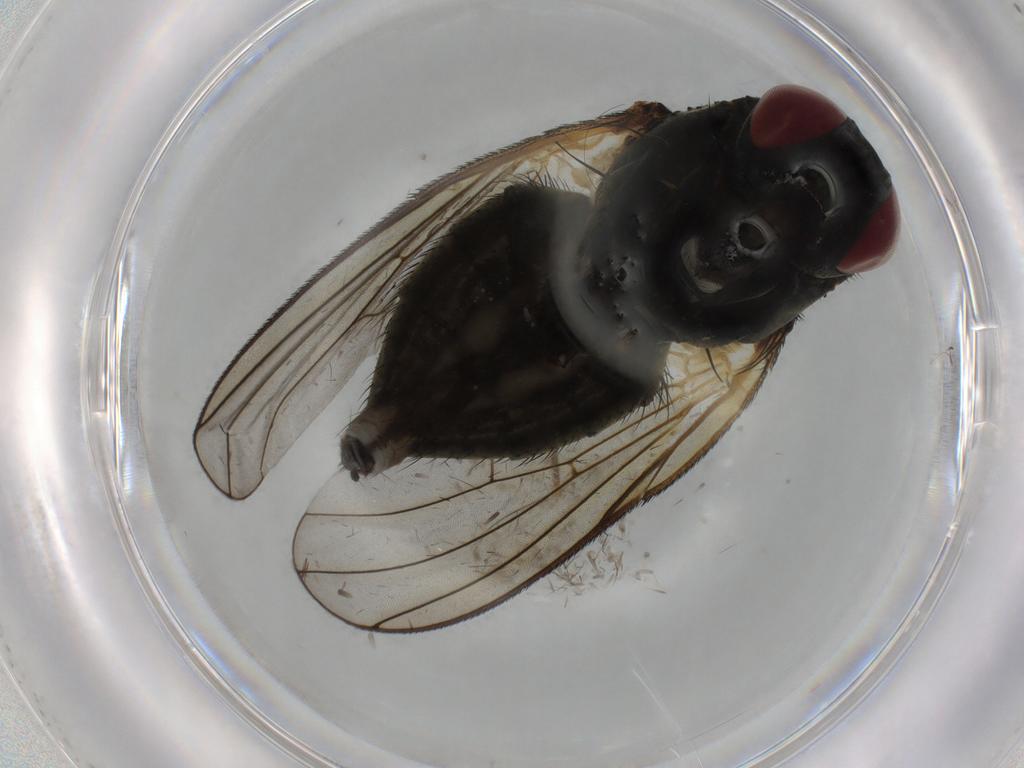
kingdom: Animalia
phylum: Arthropoda
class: Insecta
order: Diptera
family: Muscidae
